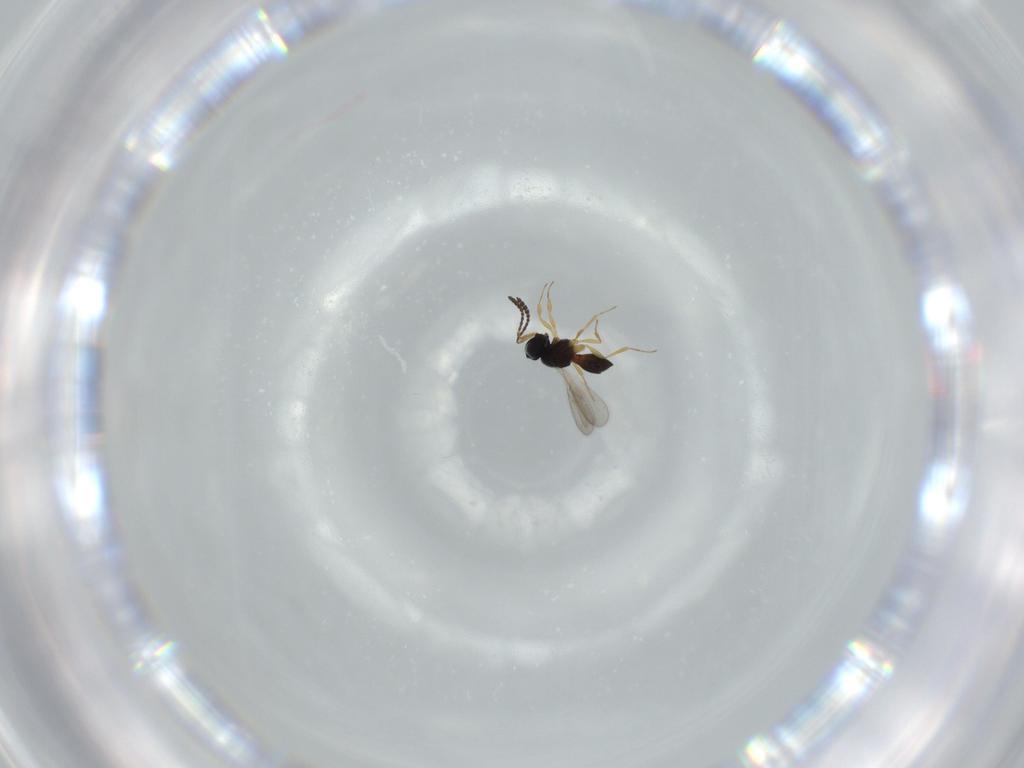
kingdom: Animalia
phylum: Arthropoda
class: Insecta
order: Hymenoptera
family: Scelionidae
